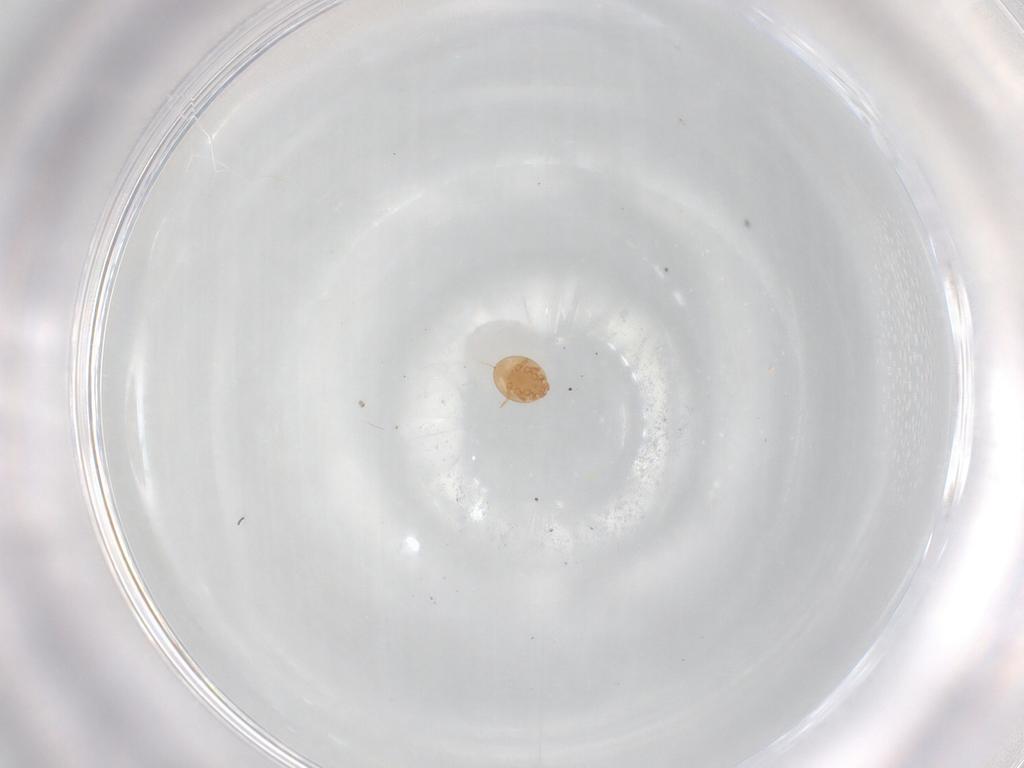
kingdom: Animalia
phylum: Arthropoda
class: Arachnida
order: Mesostigmata
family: Trematuridae
